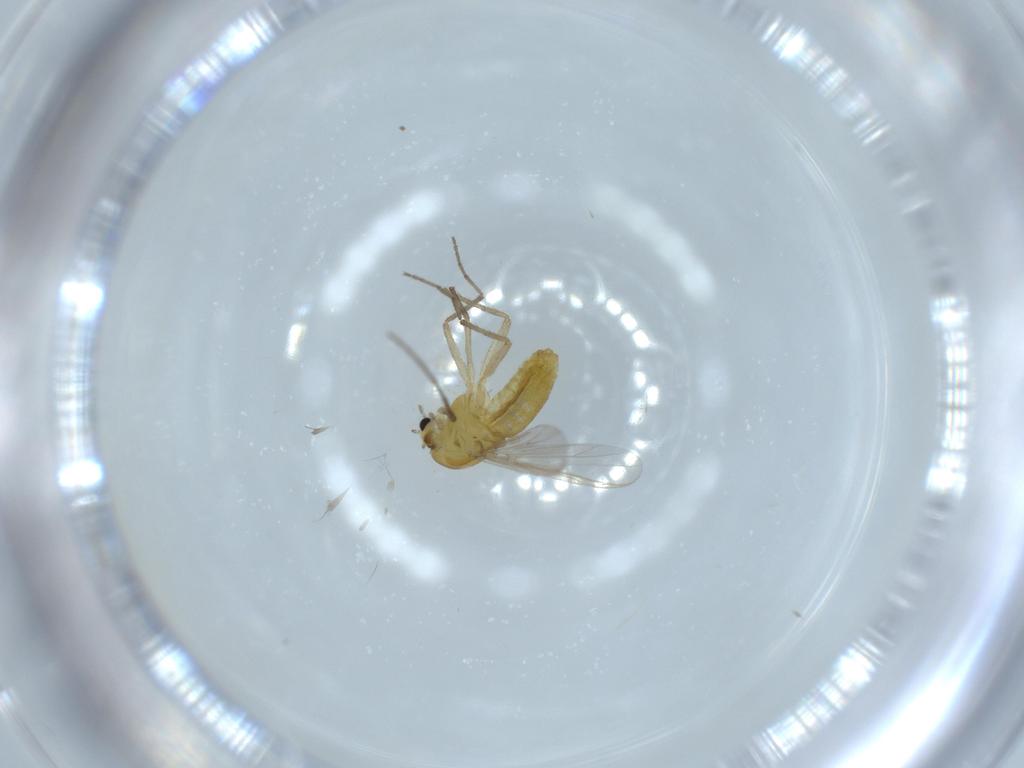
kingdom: Animalia
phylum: Arthropoda
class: Insecta
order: Diptera
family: Chironomidae
